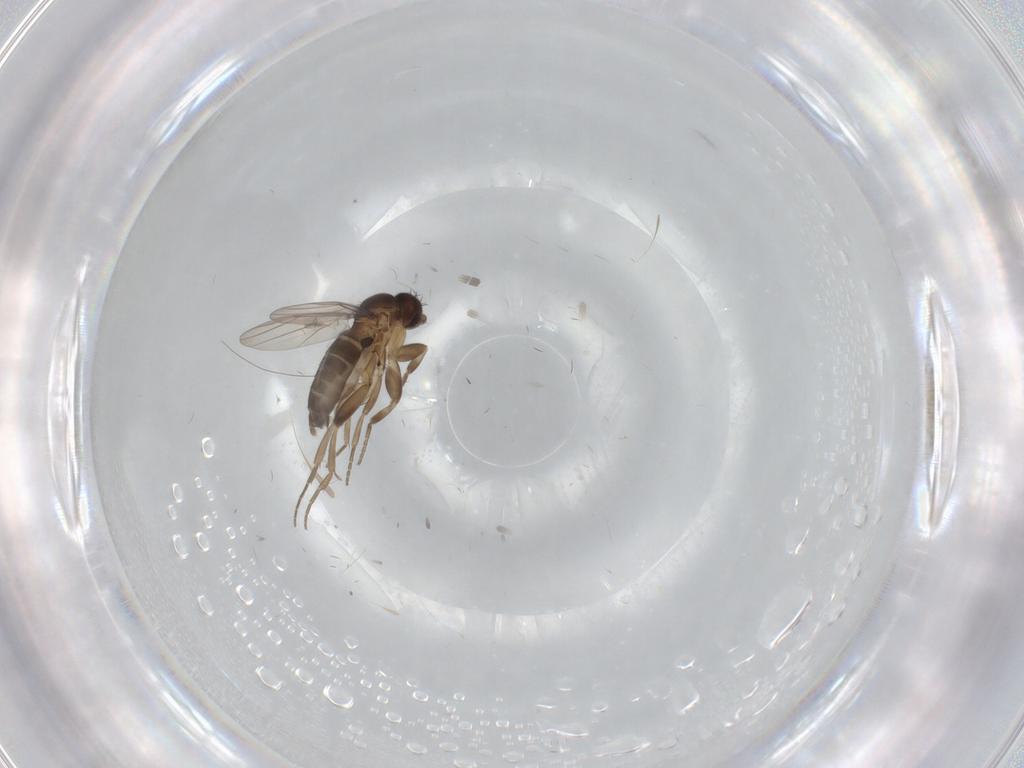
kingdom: Animalia
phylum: Arthropoda
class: Insecta
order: Diptera
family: Phoridae
